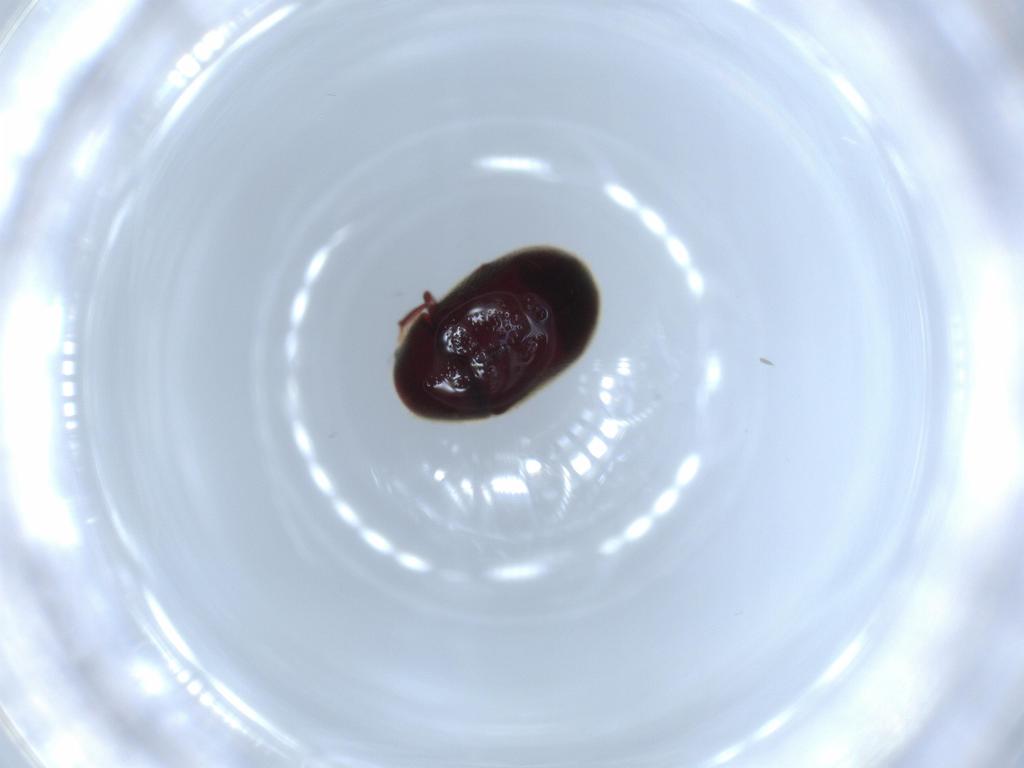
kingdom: Animalia
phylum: Arthropoda
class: Insecta
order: Coleoptera
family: Ptinidae
